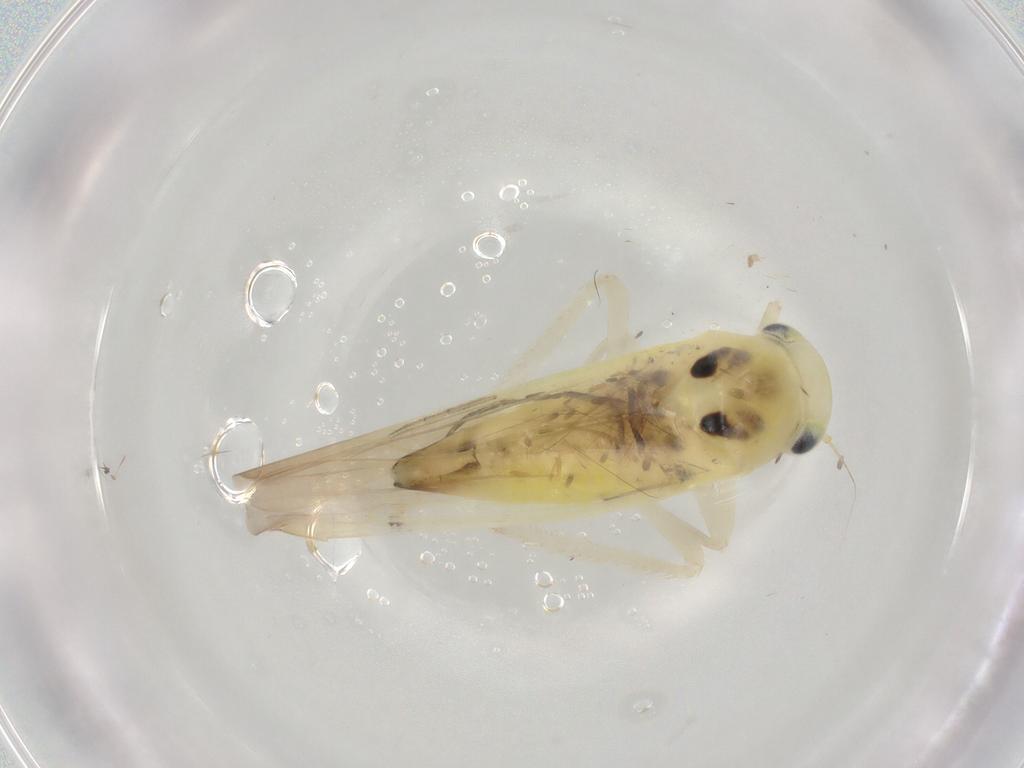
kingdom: Animalia
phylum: Arthropoda
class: Insecta
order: Hemiptera
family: Cicadellidae
